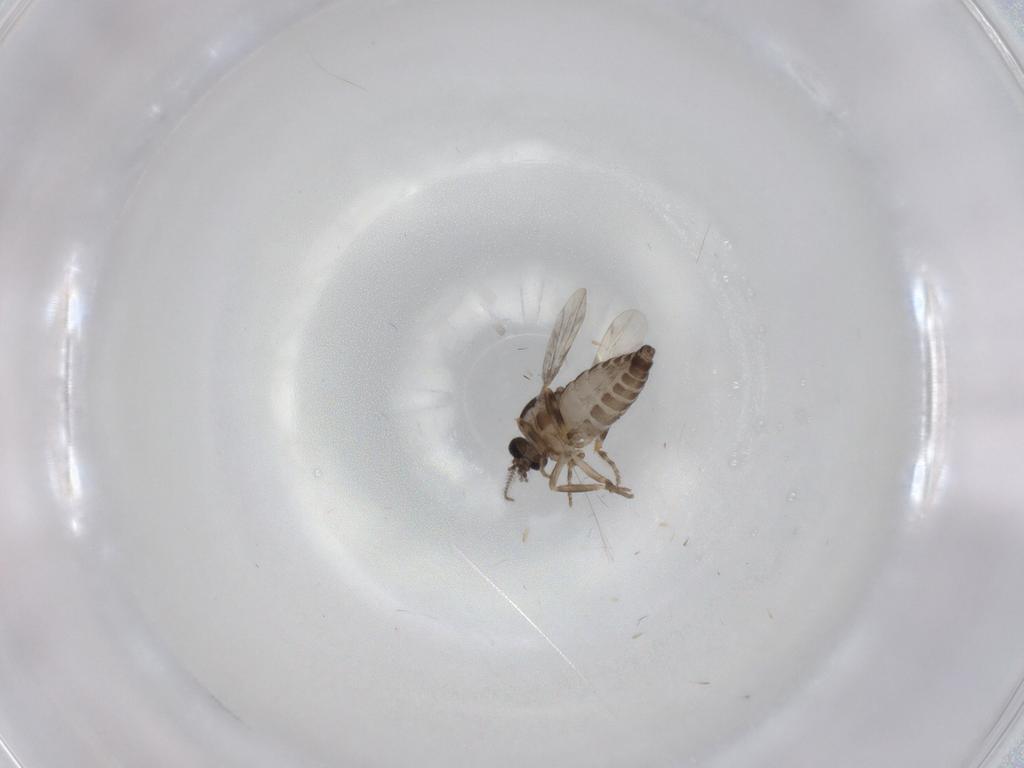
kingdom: Animalia
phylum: Arthropoda
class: Insecta
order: Diptera
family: Ceratopogonidae
